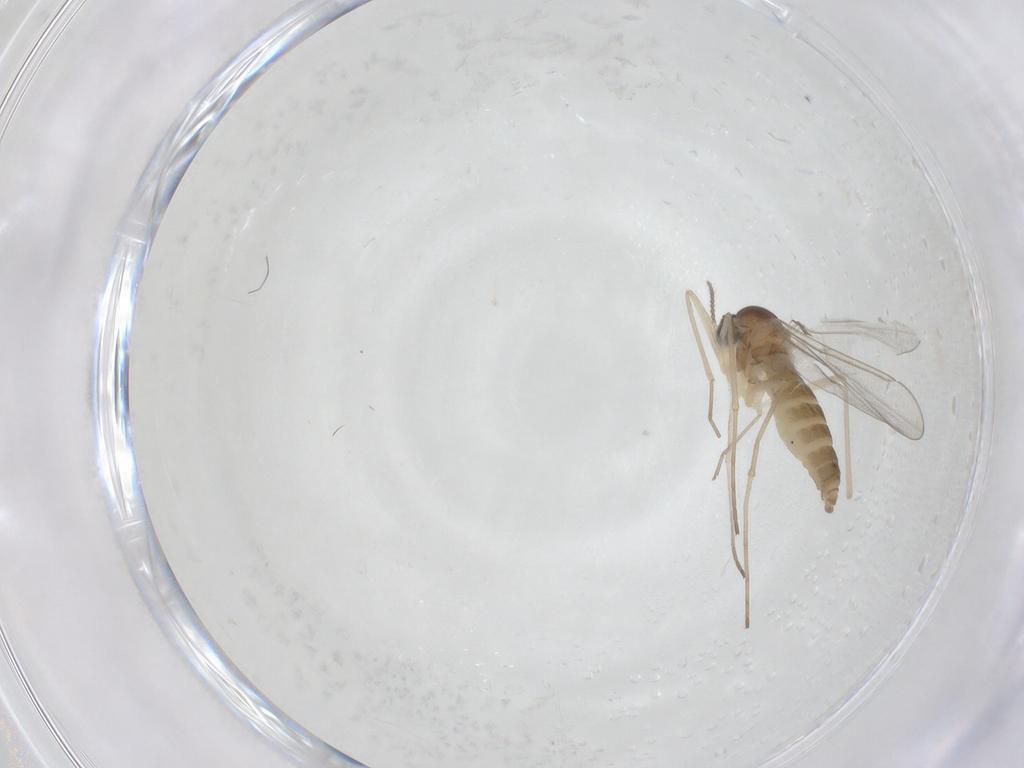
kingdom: Animalia
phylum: Arthropoda
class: Insecta
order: Diptera
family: Cecidomyiidae
